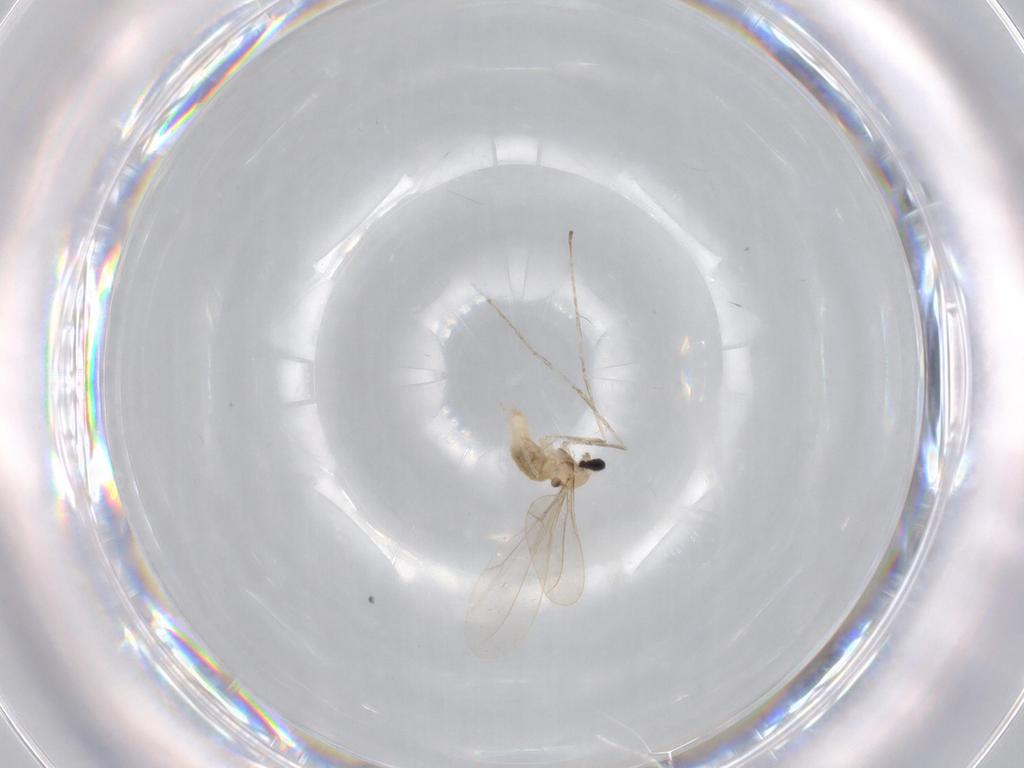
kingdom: Animalia
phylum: Arthropoda
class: Insecta
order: Diptera
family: Cecidomyiidae
